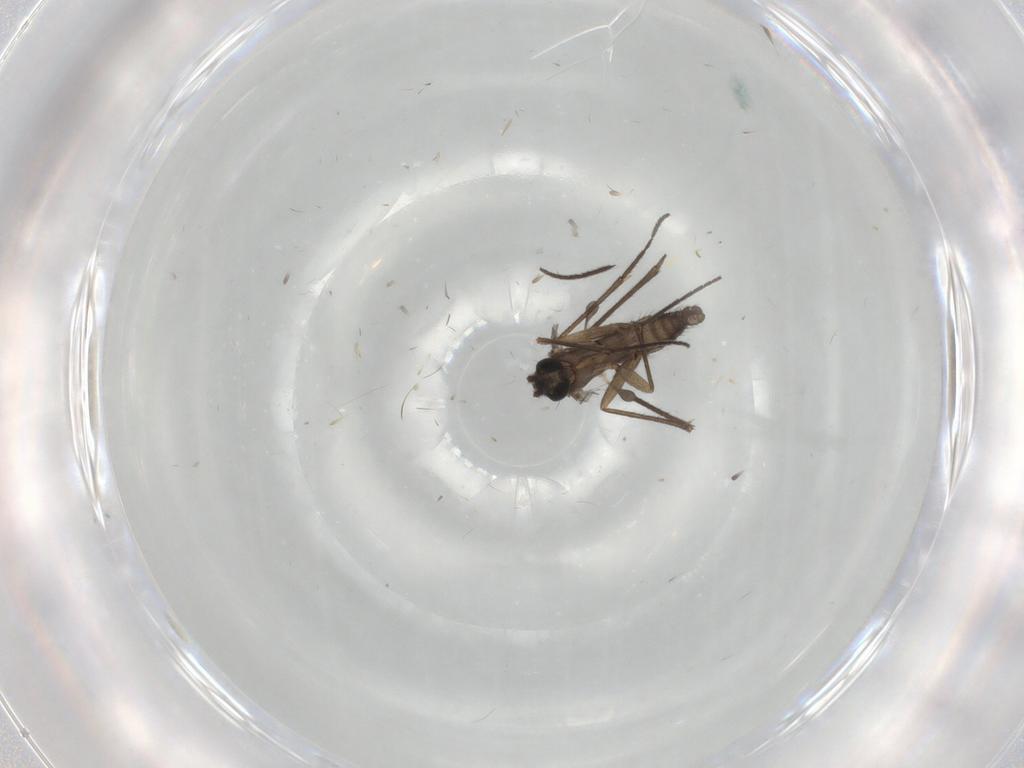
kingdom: Animalia
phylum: Arthropoda
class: Insecta
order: Diptera
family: Sciaridae
